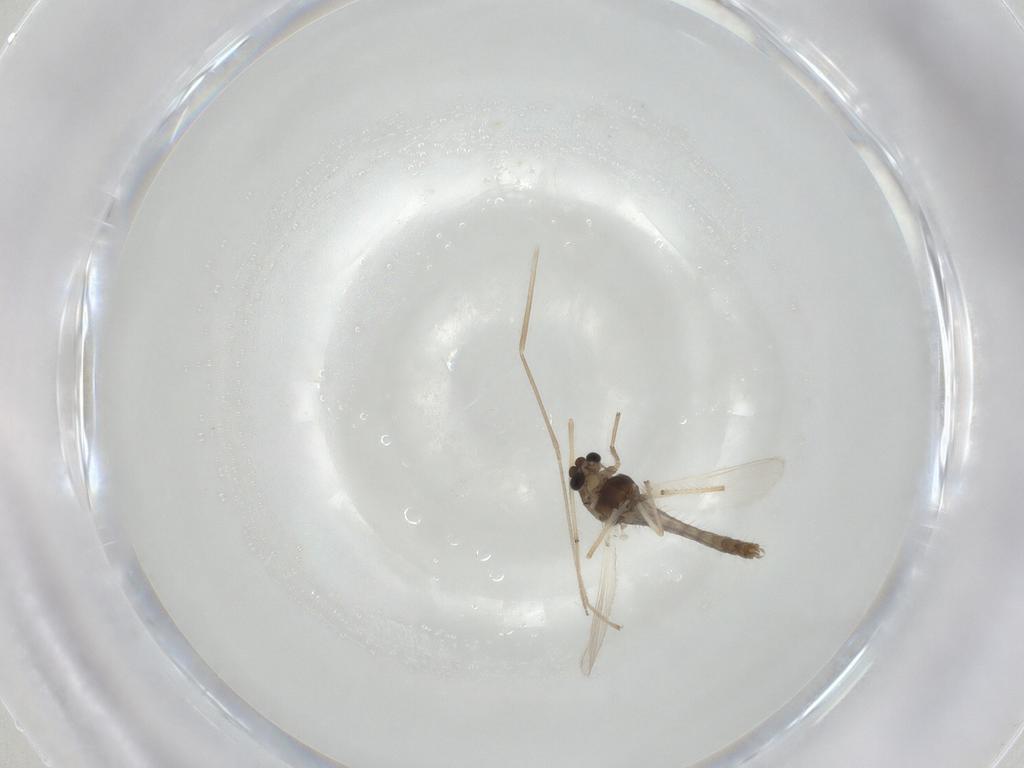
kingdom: Animalia
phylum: Arthropoda
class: Insecta
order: Diptera
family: Chironomidae
